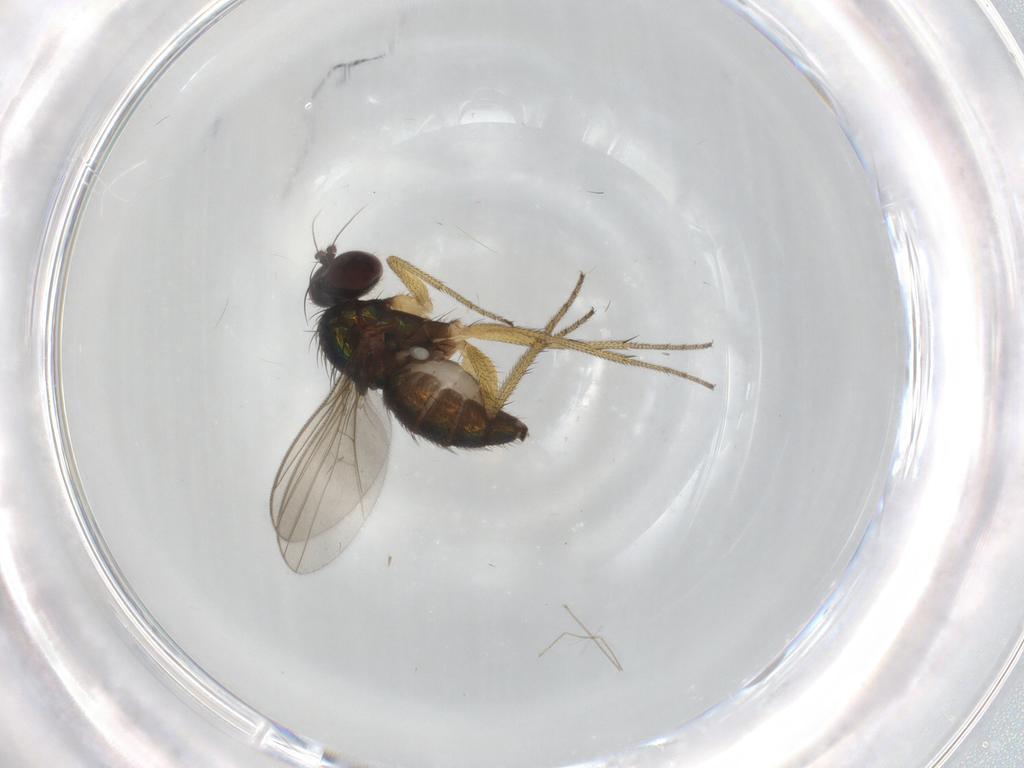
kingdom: Animalia
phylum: Arthropoda
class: Insecta
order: Diptera
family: Dolichopodidae
